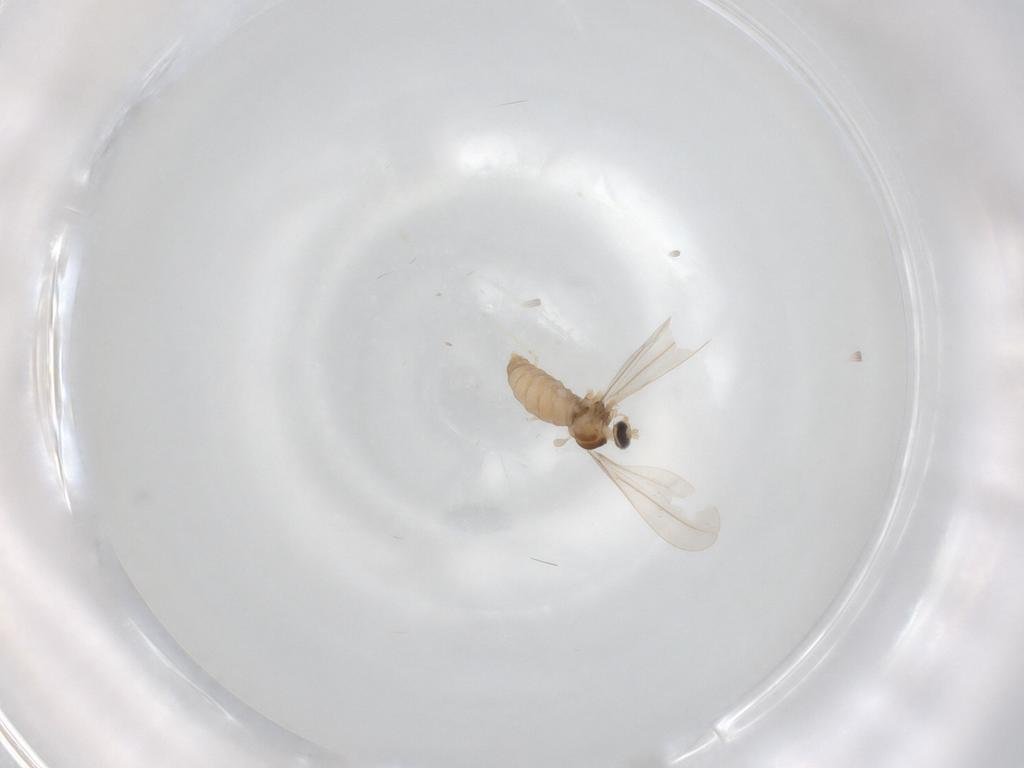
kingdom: Animalia
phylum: Arthropoda
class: Insecta
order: Diptera
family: Cecidomyiidae
